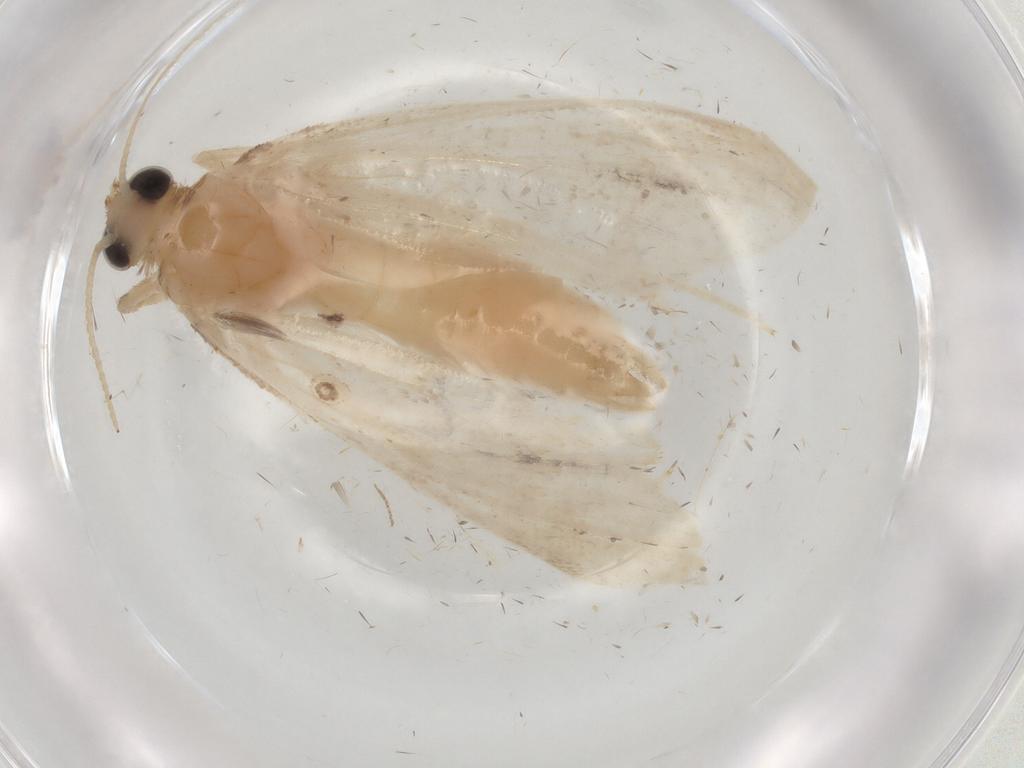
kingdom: Animalia
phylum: Arthropoda
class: Insecta
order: Lepidoptera
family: Crambidae
